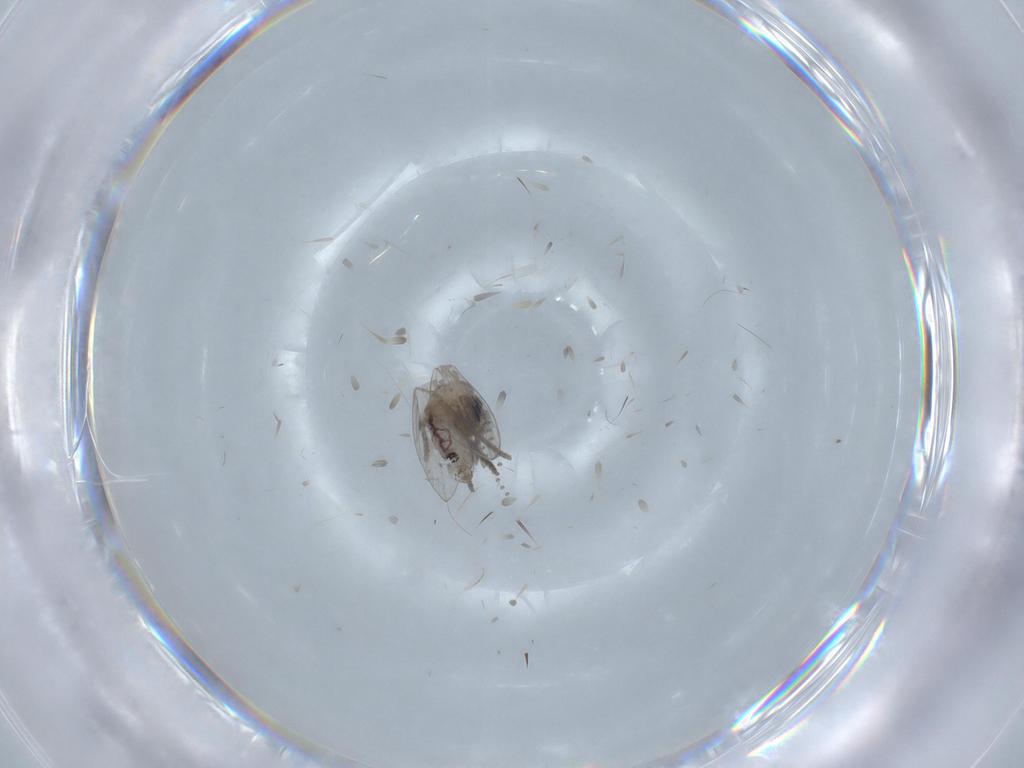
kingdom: Animalia
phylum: Arthropoda
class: Insecta
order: Diptera
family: Psychodidae
